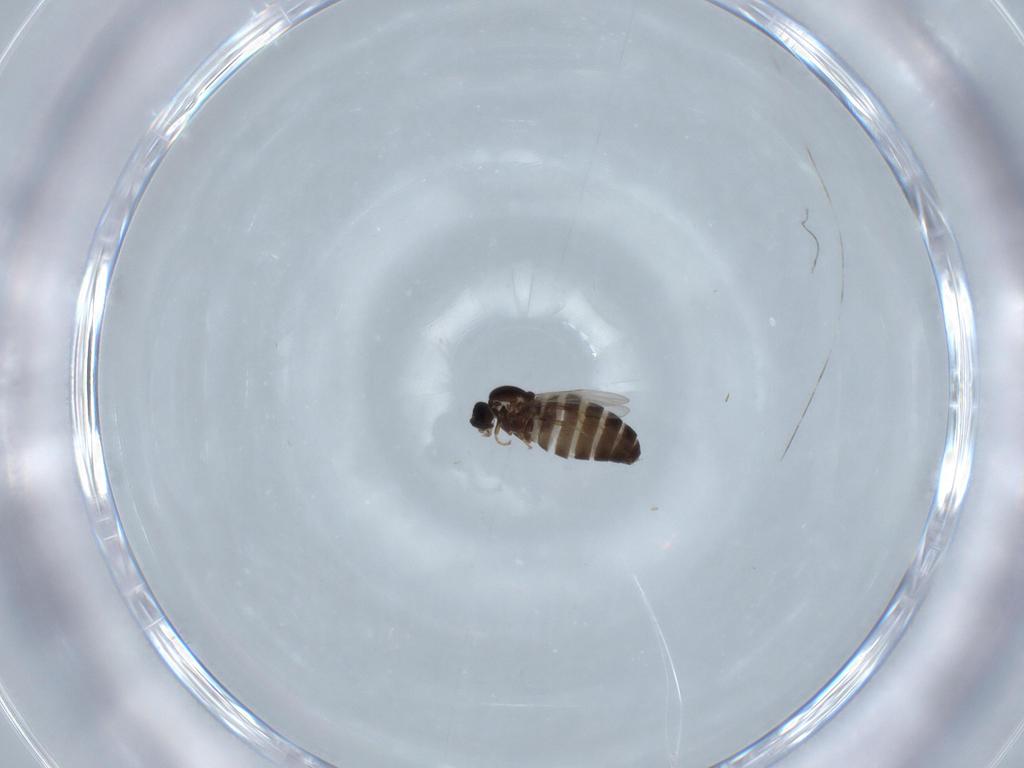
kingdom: Animalia
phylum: Arthropoda
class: Insecta
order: Diptera
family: Scatopsidae
